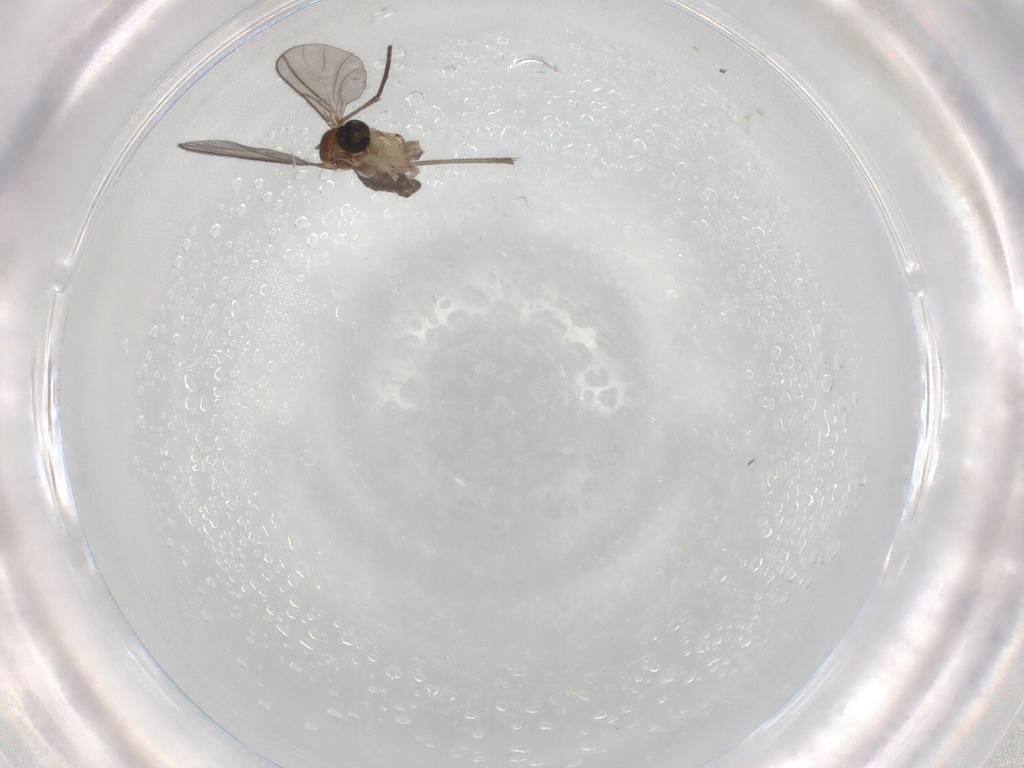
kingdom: Animalia
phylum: Arthropoda
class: Insecta
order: Diptera
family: Sciaridae
